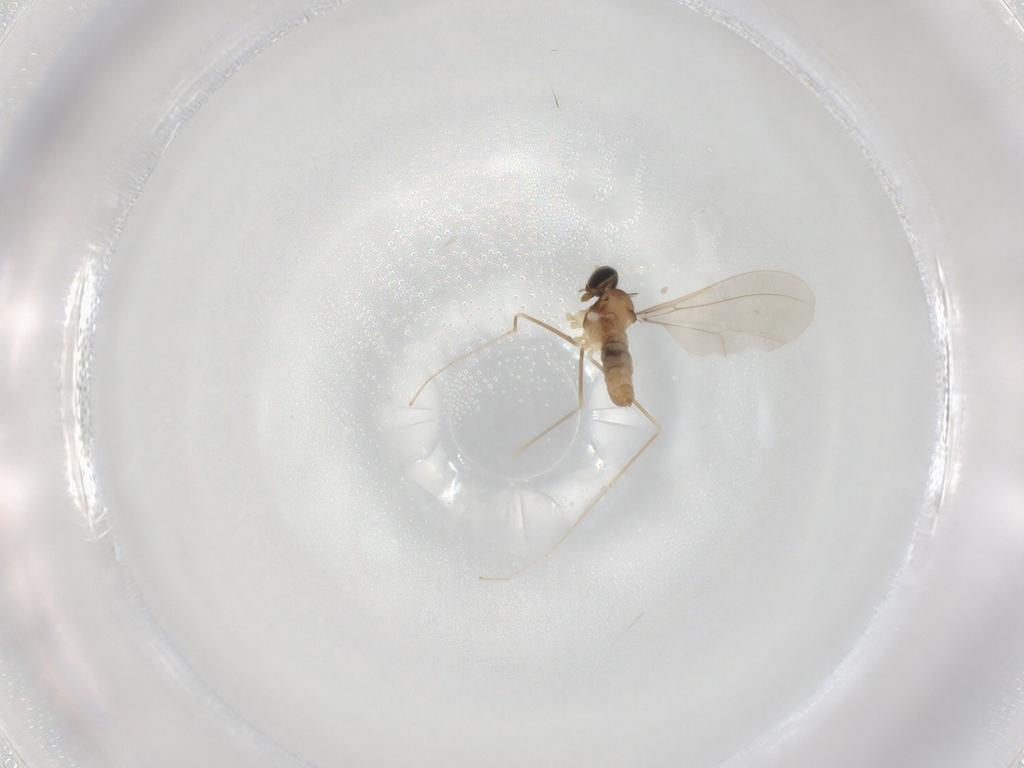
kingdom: Animalia
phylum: Arthropoda
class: Insecta
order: Diptera
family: Cecidomyiidae
